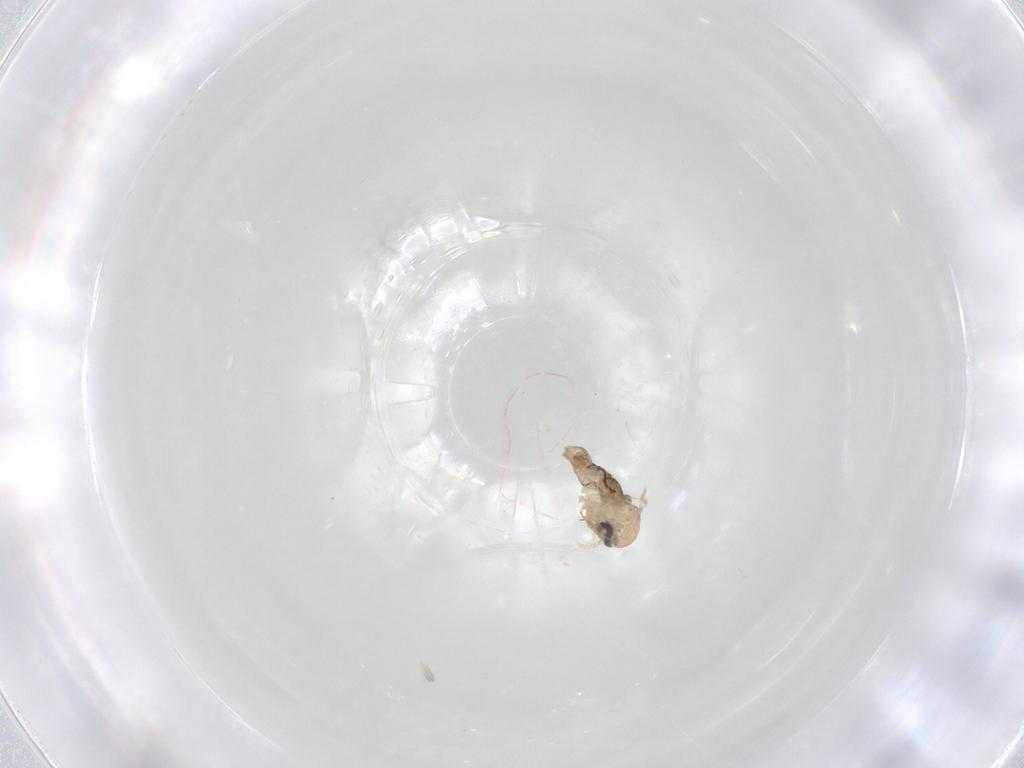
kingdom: Animalia
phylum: Arthropoda
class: Insecta
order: Diptera
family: Psychodidae
